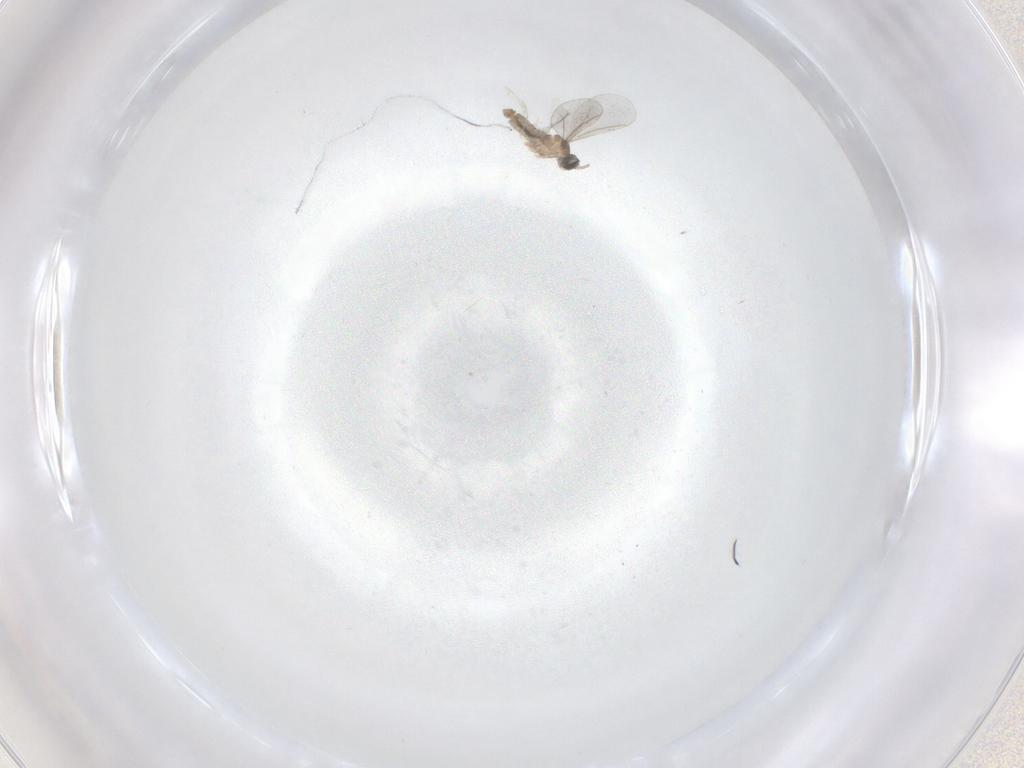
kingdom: Animalia
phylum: Arthropoda
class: Insecta
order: Diptera
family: Cecidomyiidae
